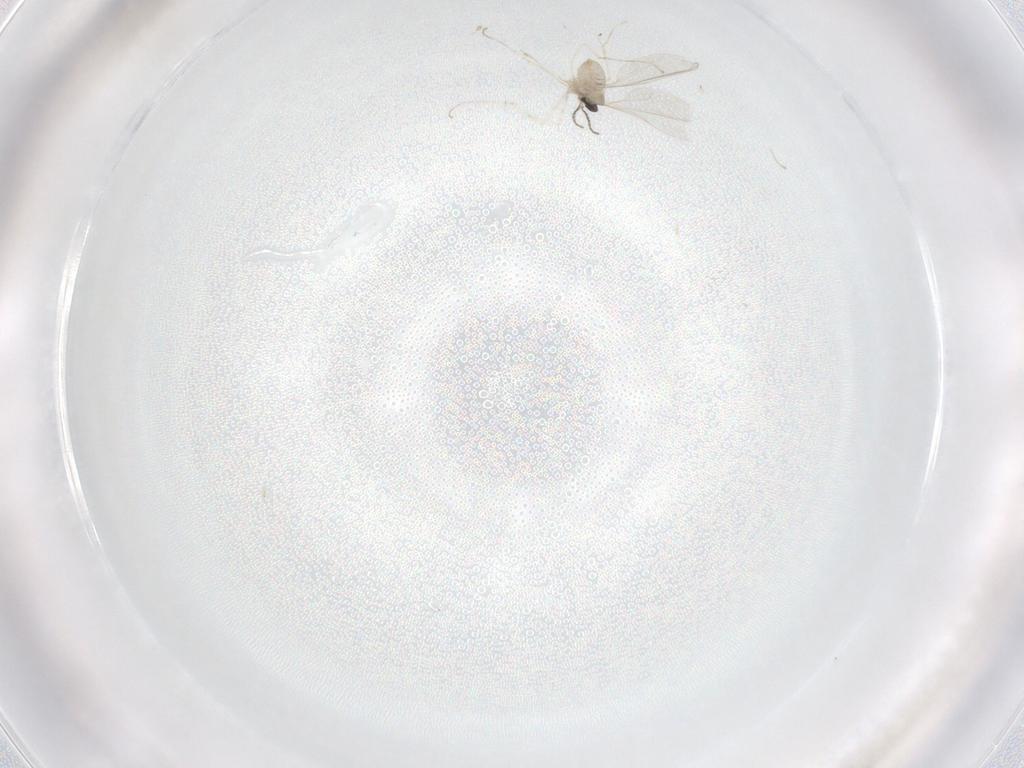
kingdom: Animalia
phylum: Arthropoda
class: Insecta
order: Diptera
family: Cecidomyiidae
